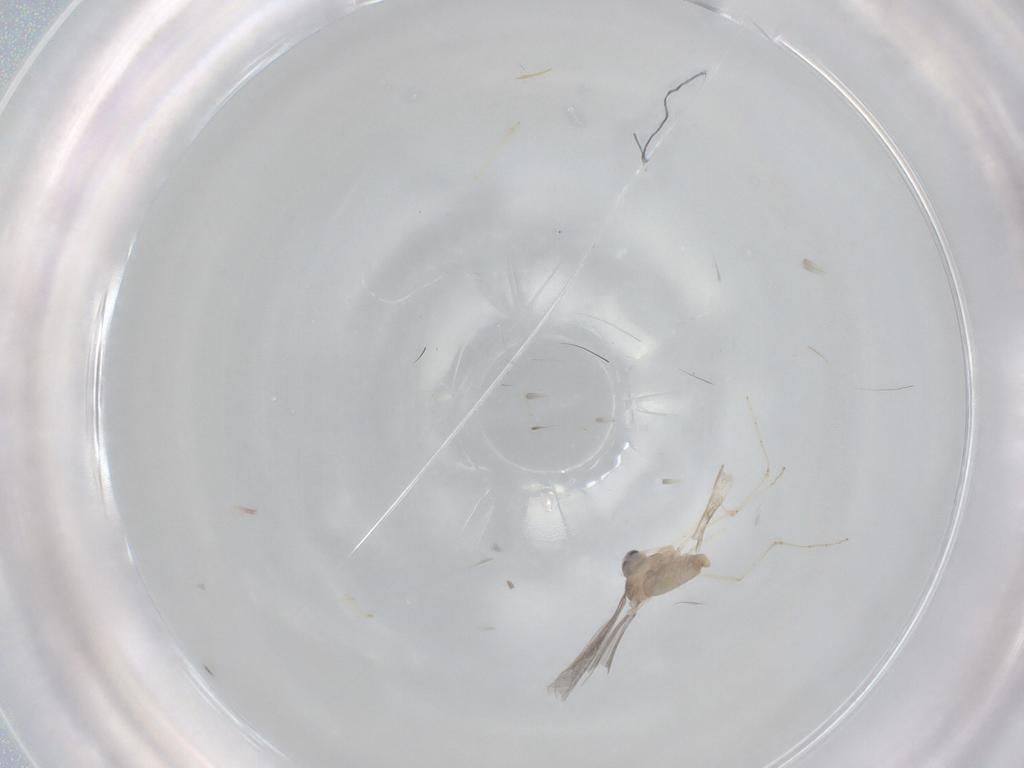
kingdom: Animalia
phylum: Arthropoda
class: Insecta
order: Diptera
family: Cecidomyiidae
